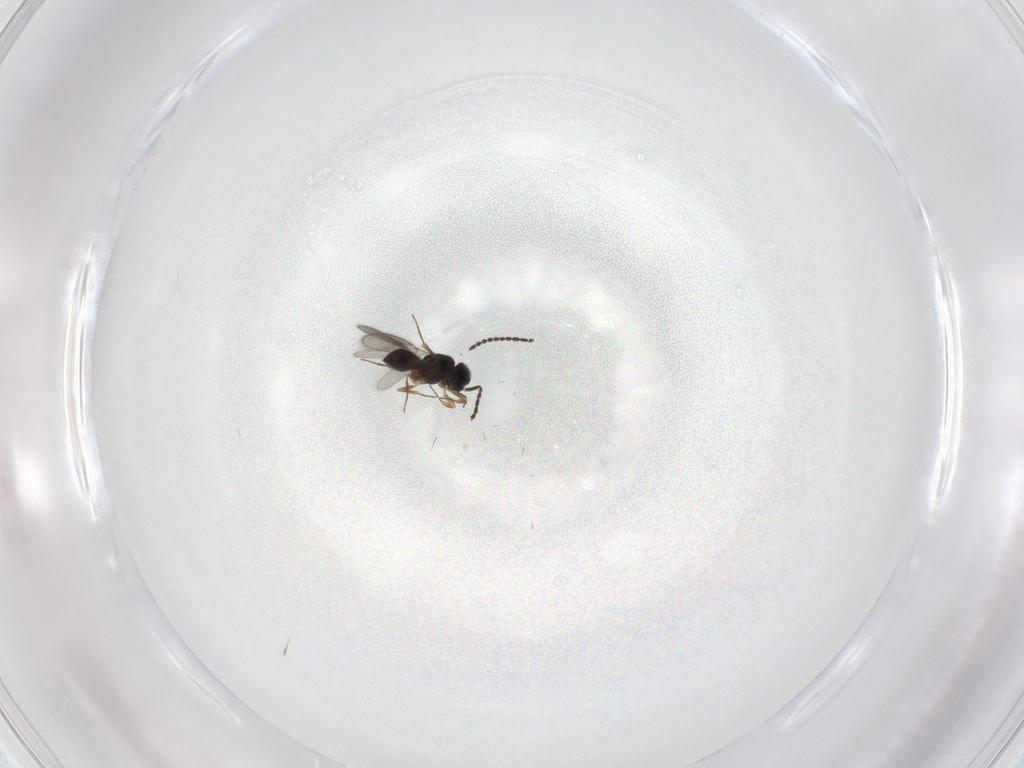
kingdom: Animalia
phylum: Arthropoda
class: Insecta
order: Hymenoptera
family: Scelionidae
